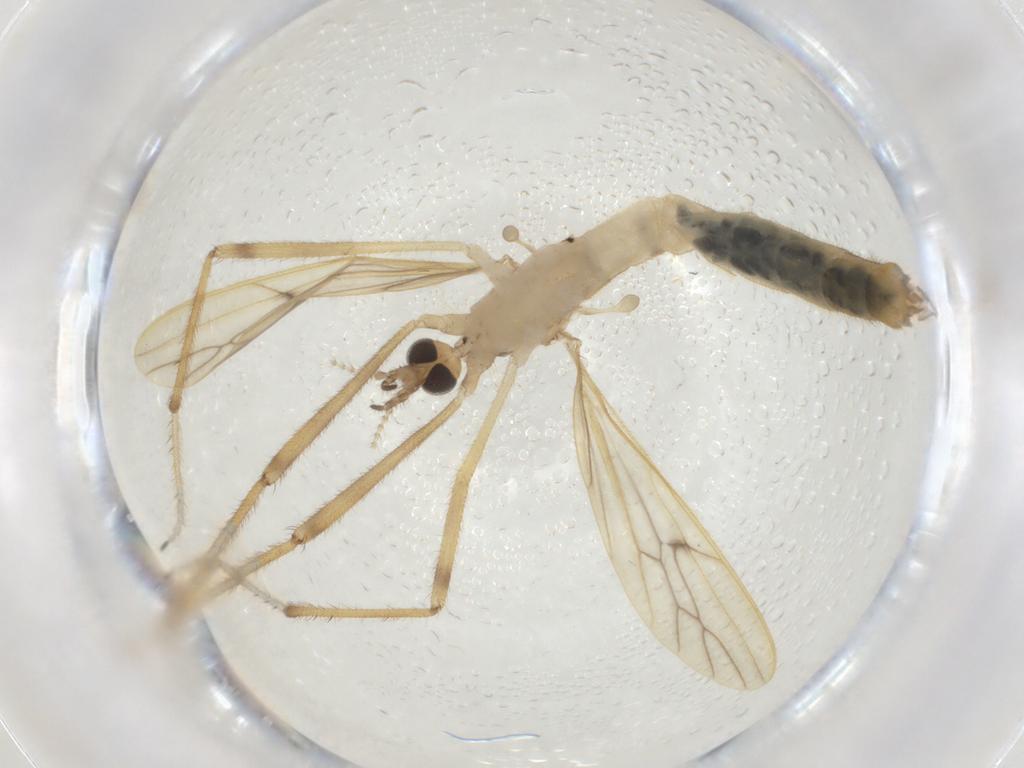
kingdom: Animalia
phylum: Arthropoda
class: Insecta
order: Diptera
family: Limoniidae
